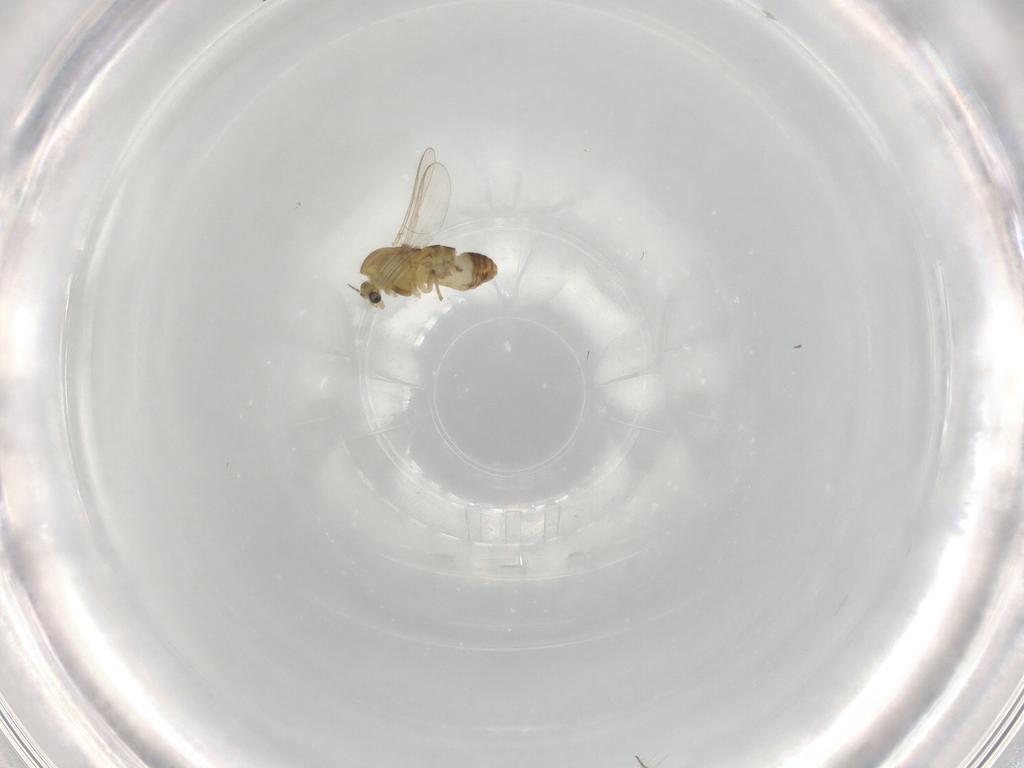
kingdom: Animalia
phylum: Arthropoda
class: Insecta
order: Diptera
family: Chironomidae
